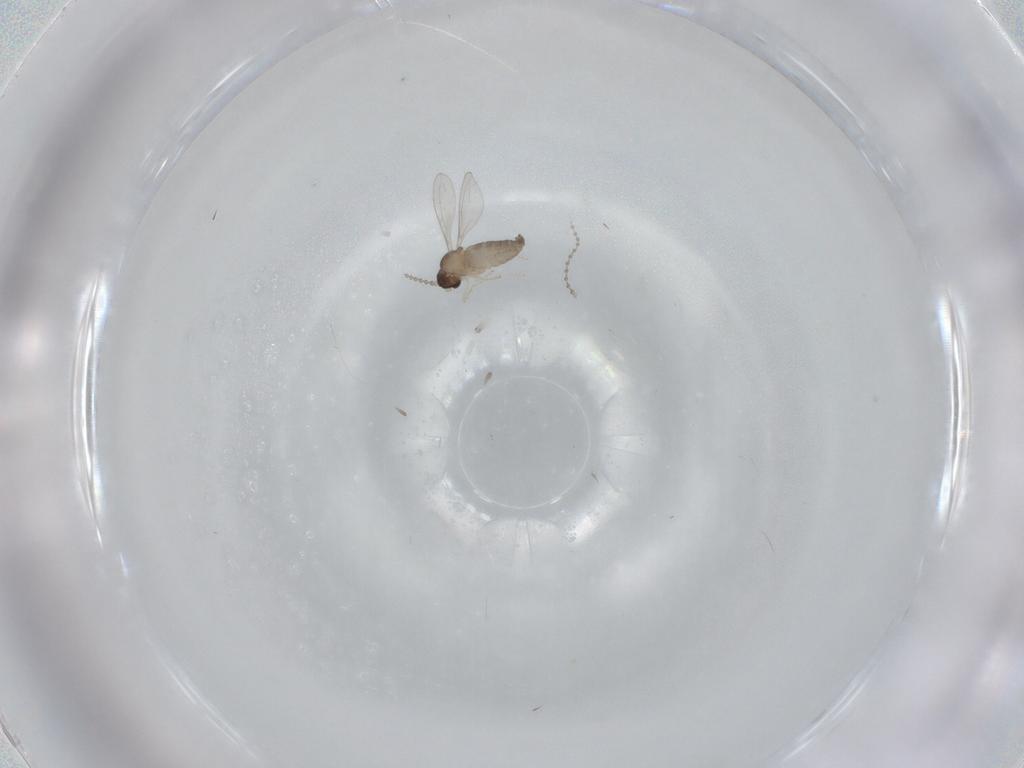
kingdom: Animalia
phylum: Arthropoda
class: Insecta
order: Diptera
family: Cecidomyiidae
